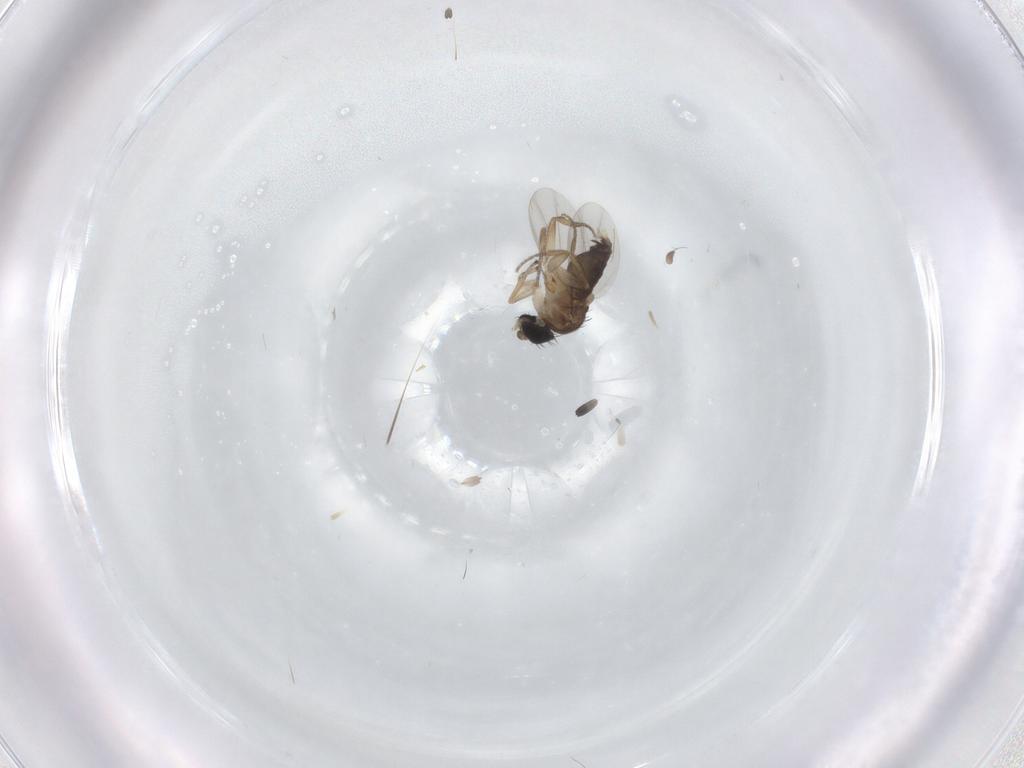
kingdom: Animalia
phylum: Arthropoda
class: Insecta
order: Diptera
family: Phoridae
